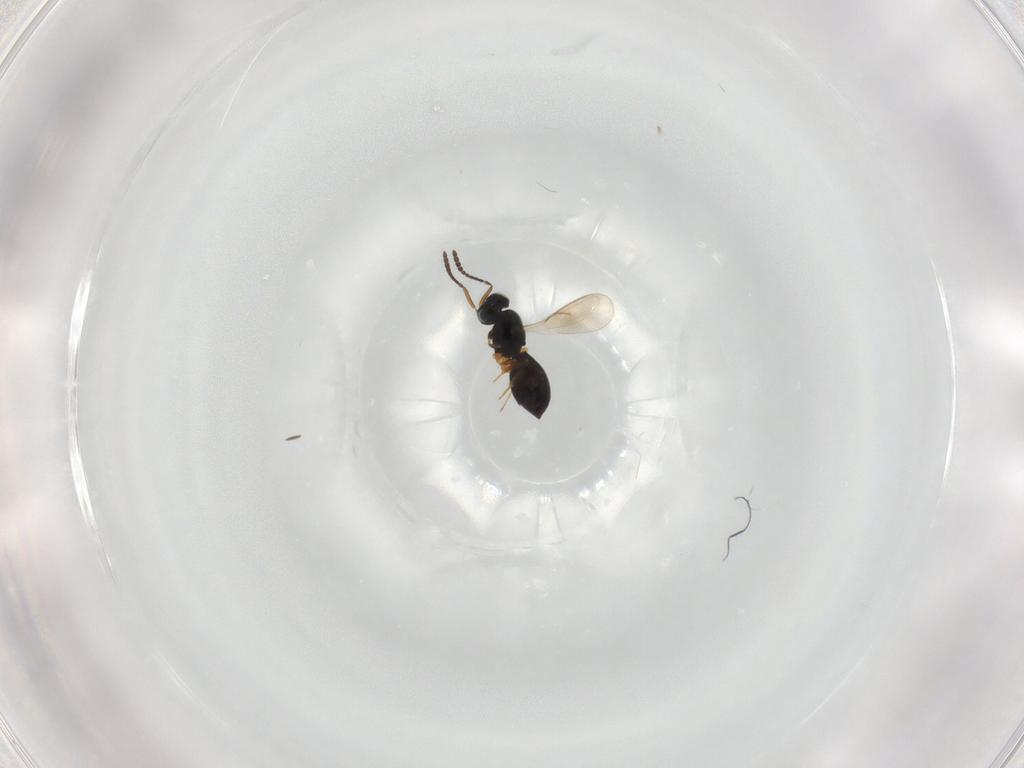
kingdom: Animalia
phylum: Arthropoda
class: Insecta
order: Hymenoptera
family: Scelionidae
